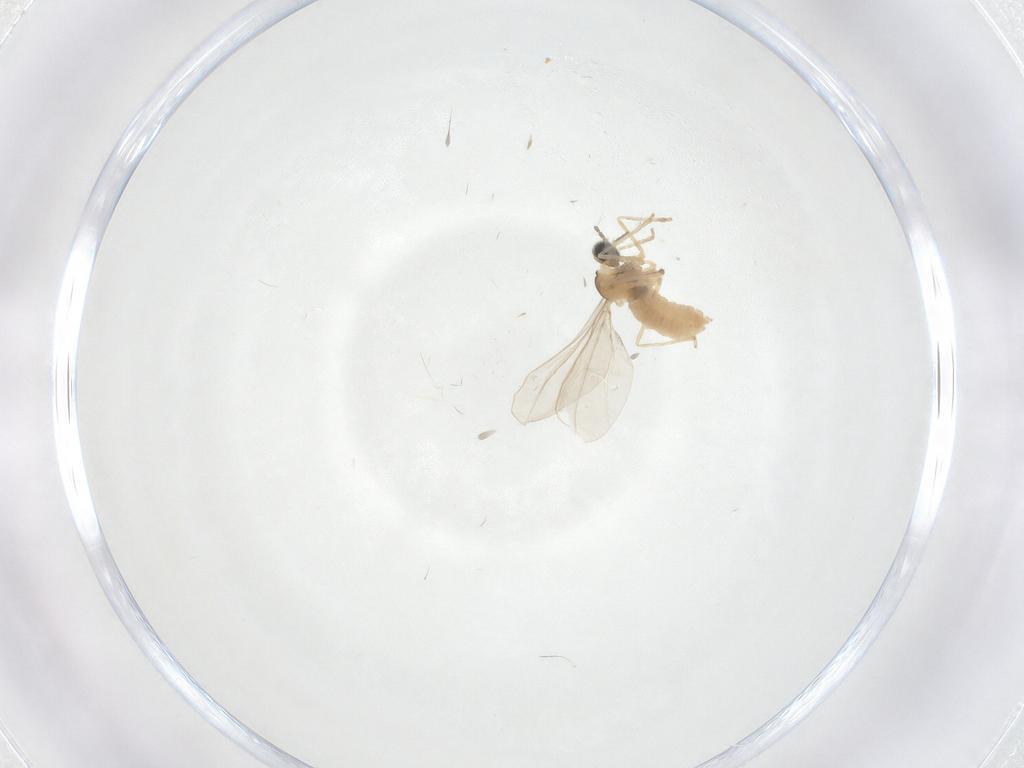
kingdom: Animalia
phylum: Arthropoda
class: Insecta
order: Diptera
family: Cecidomyiidae
